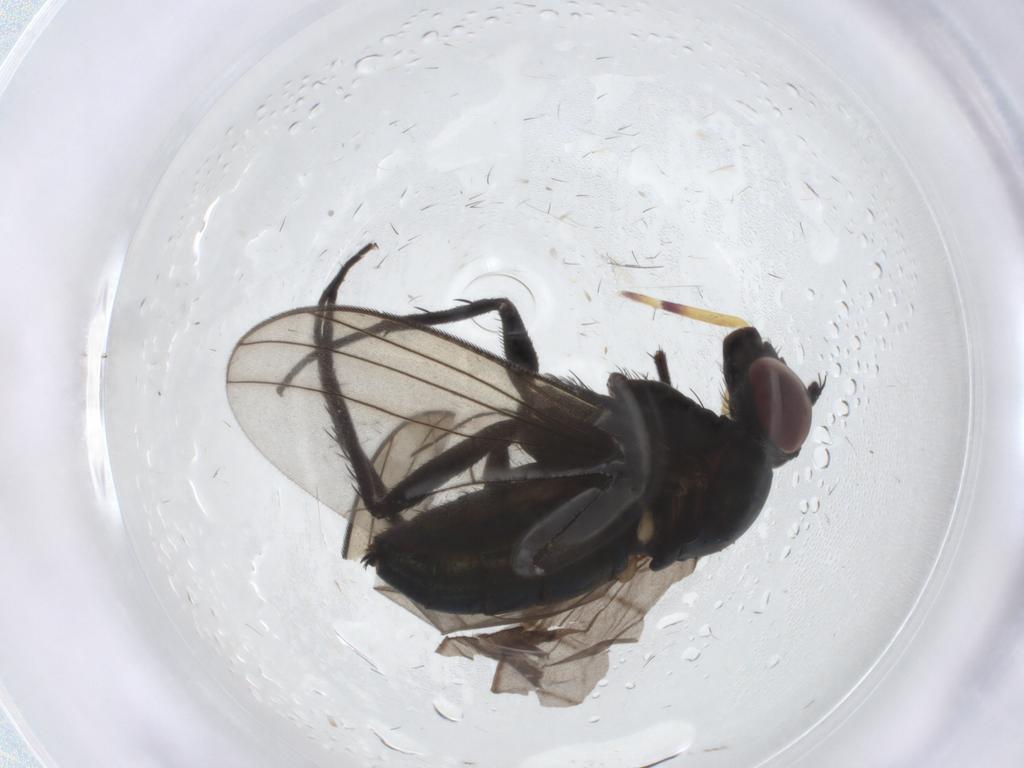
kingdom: Animalia
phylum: Arthropoda
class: Insecta
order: Diptera
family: Dolichopodidae
